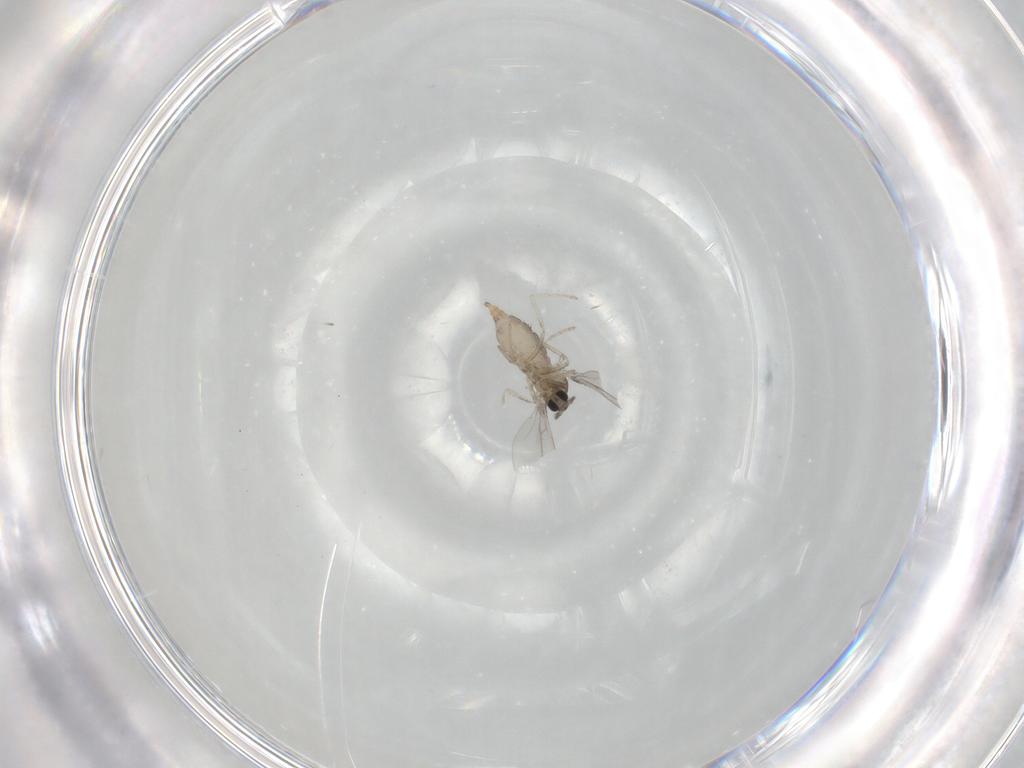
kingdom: Animalia
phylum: Arthropoda
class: Insecta
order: Diptera
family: Cecidomyiidae
